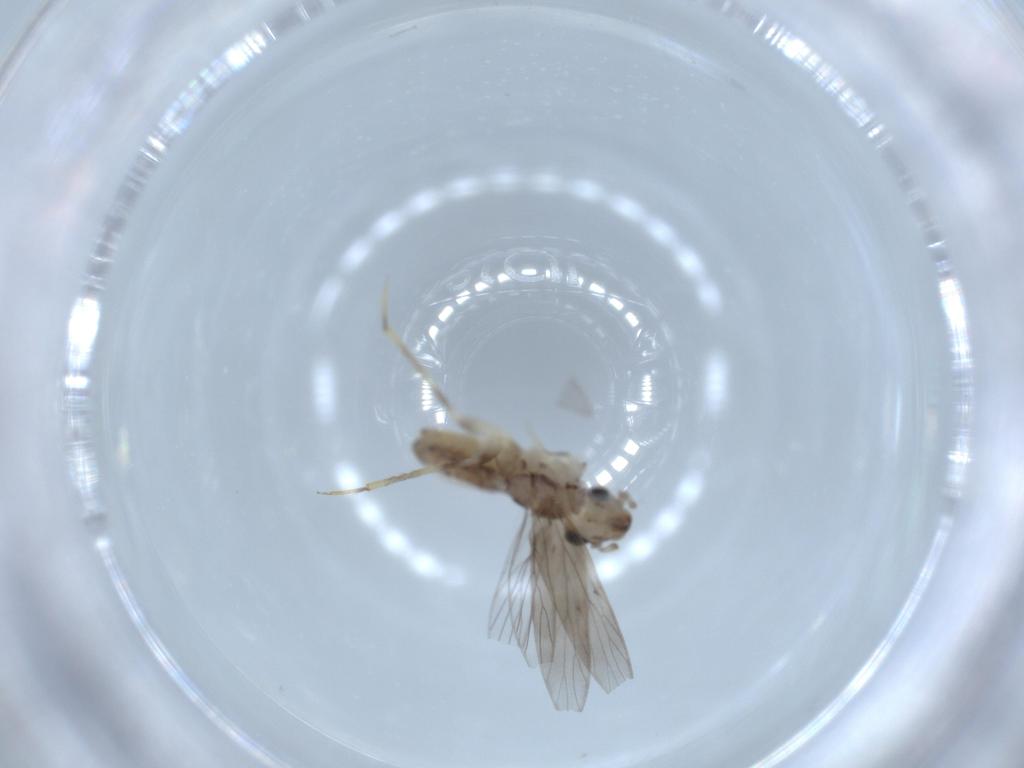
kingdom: Animalia
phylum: Arthropoda
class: Insecta
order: Psocodea
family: Lepidopsocidae
